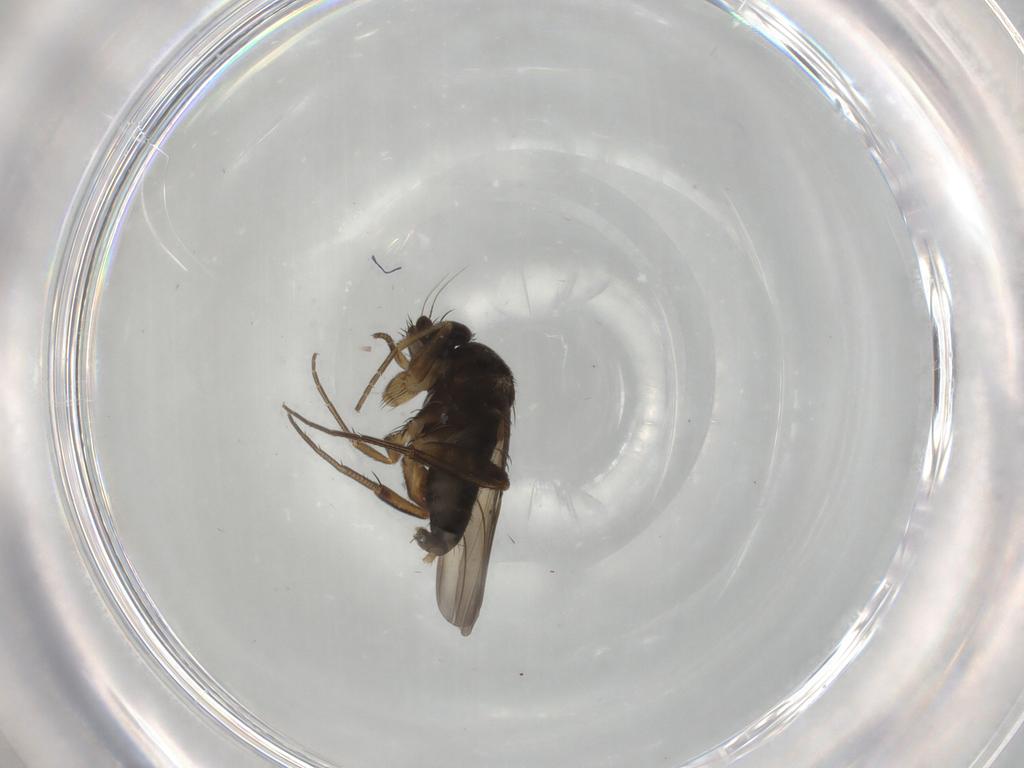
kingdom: Animalia
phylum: Arthropoda
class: Insecta
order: Diptera
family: Phoridae
